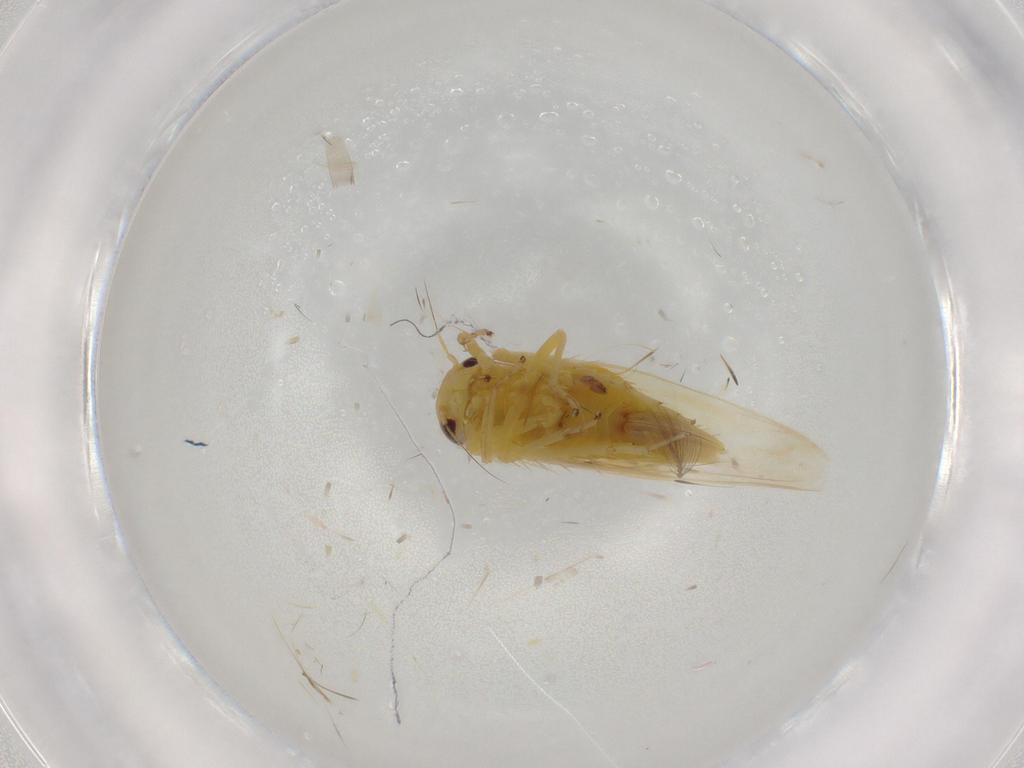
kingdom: Animalia
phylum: Arthropoda
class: Insecta
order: Hemiptera
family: Cicadellidae
